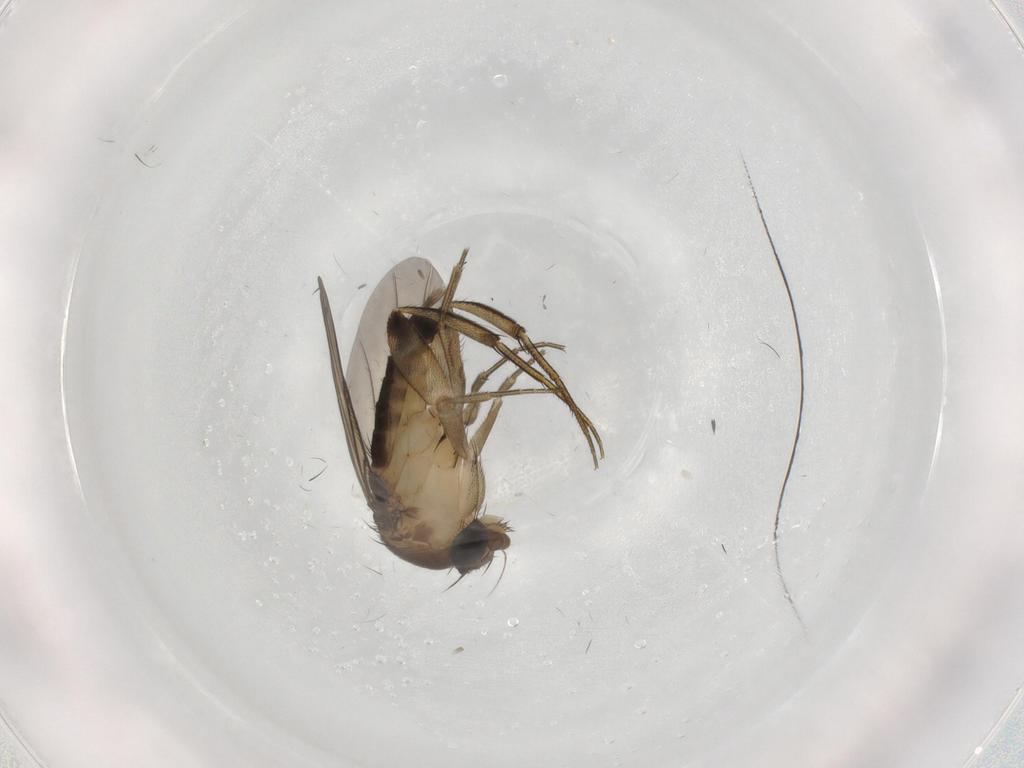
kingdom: Animalia
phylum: Arthropoda
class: Insecta
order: Diptera
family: Phoridae
